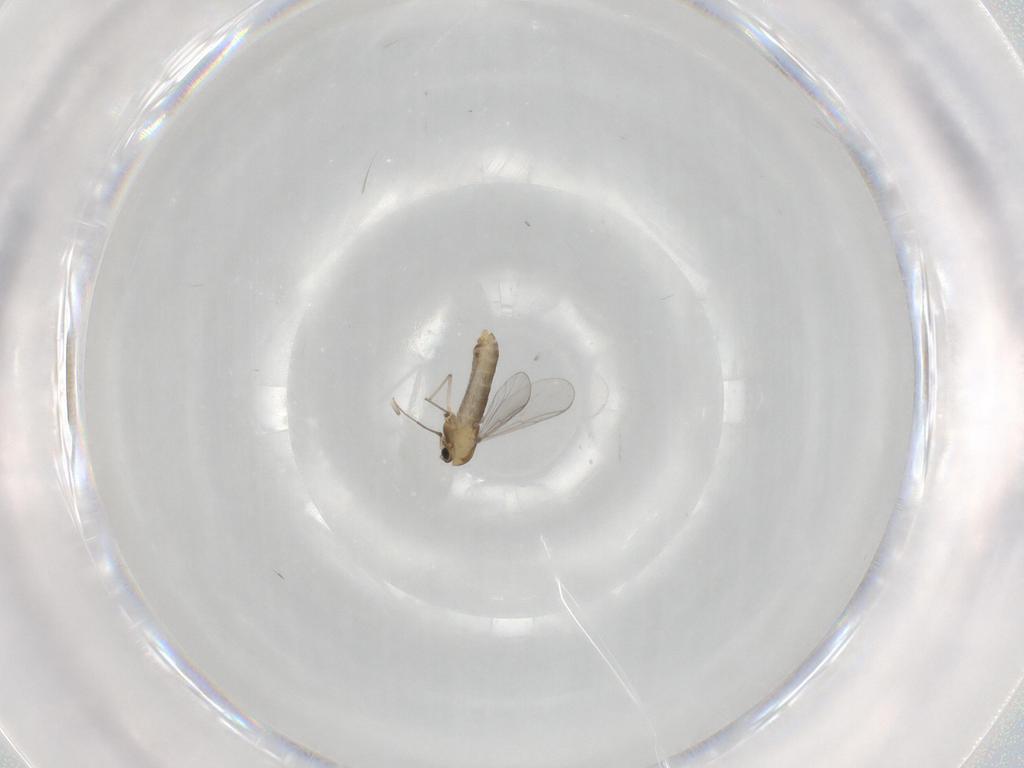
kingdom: Animalia
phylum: Arthropoda
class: Insecta
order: Diptera
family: Chironomidae
